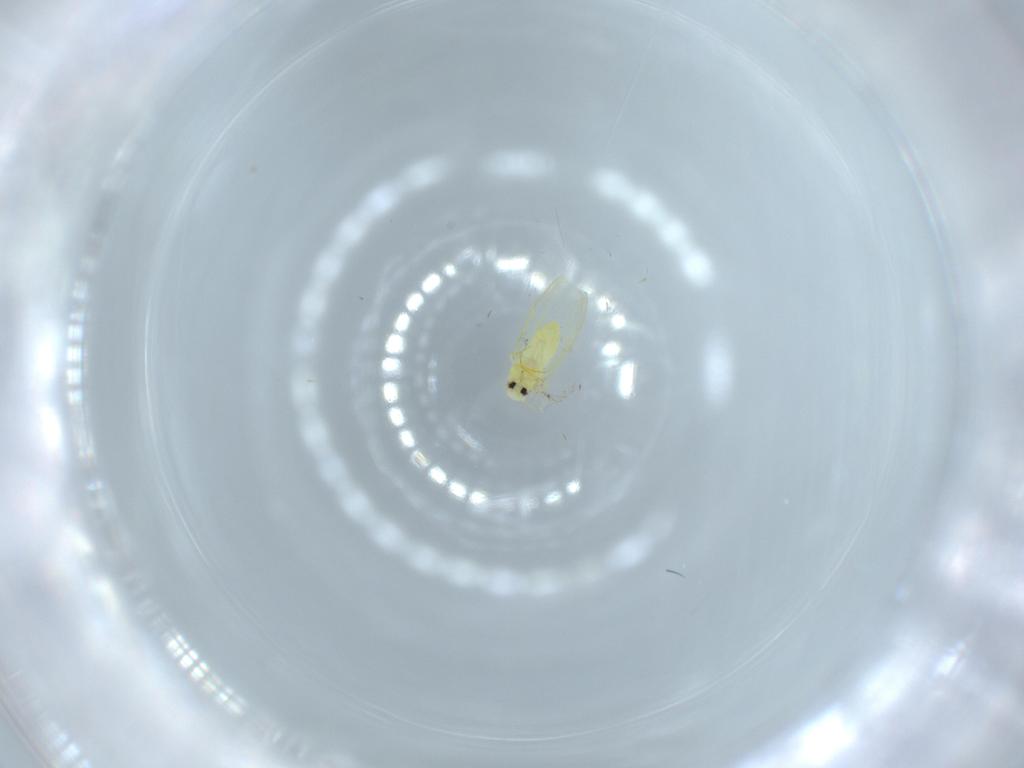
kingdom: Animalia
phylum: Arthropoda
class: Insecta
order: Hemiptera
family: Aleyrodidae
